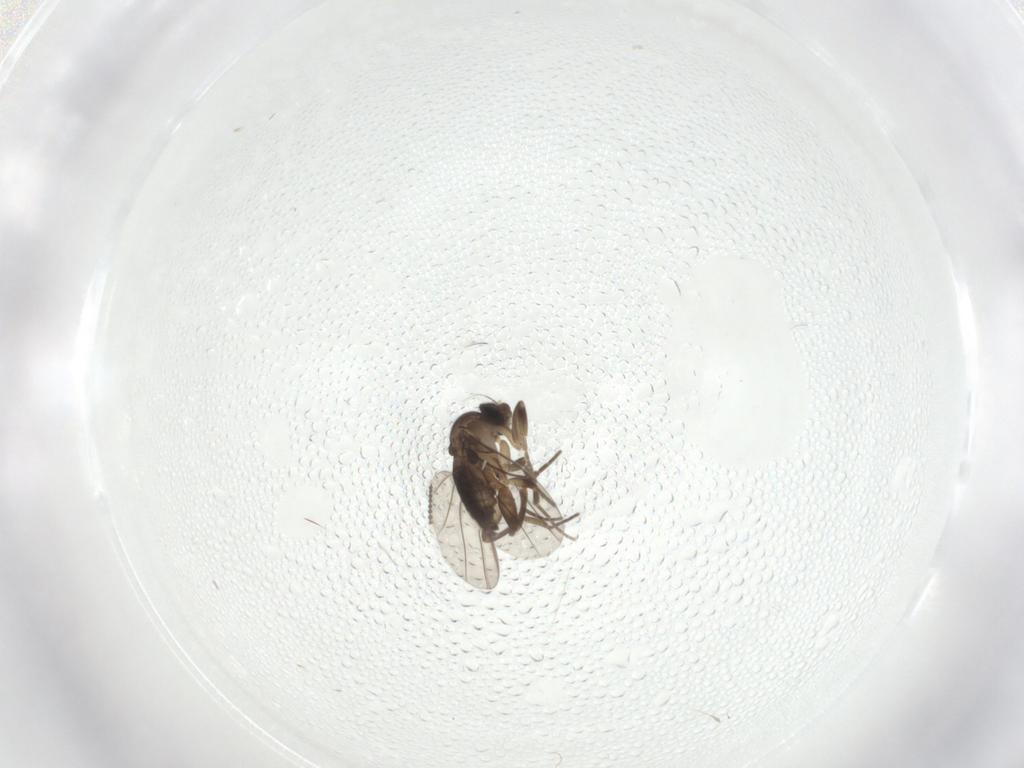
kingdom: Animalia
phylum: Arthropoda
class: Insecta
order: Diptera
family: Phoridae
